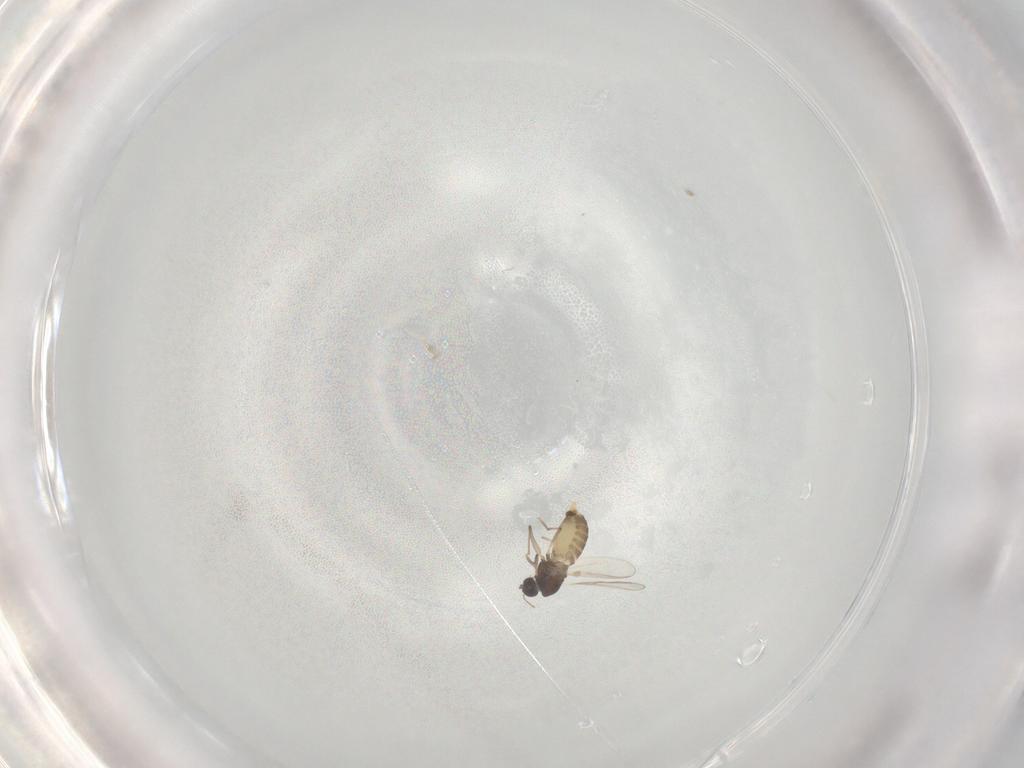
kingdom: Animalia
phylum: Arthropoda
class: Insecta
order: Diptera
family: Chironomidae
